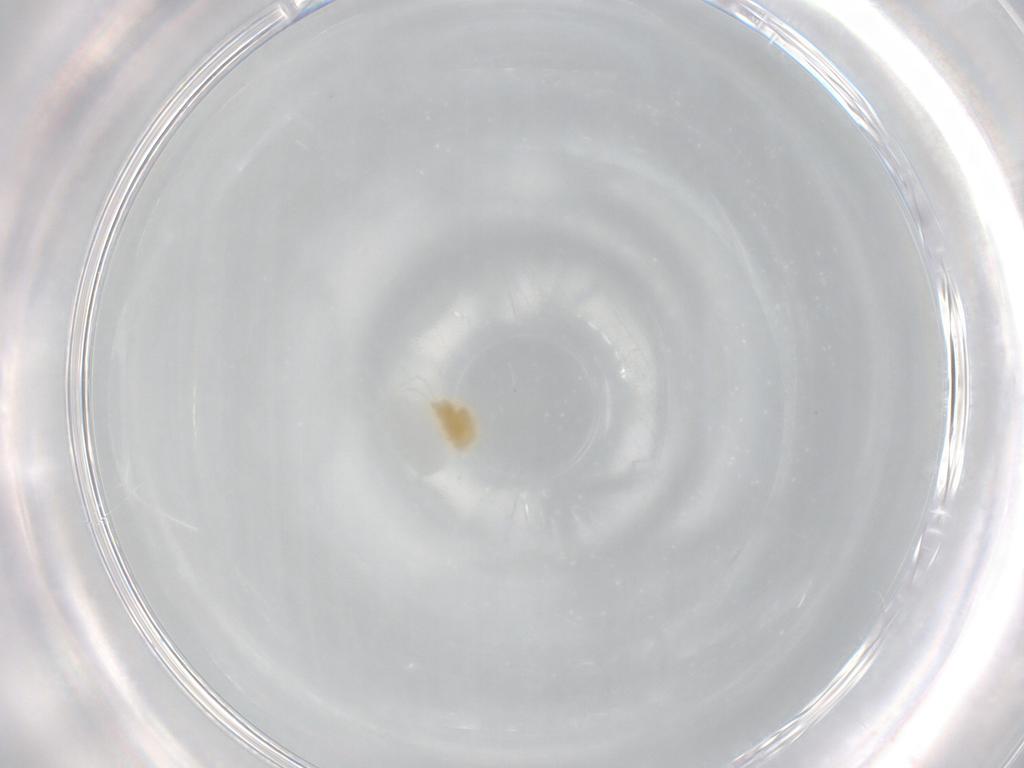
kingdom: Animalia
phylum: Arthropoda
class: Arachnida
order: Trombidiformes
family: Tetranychidae
